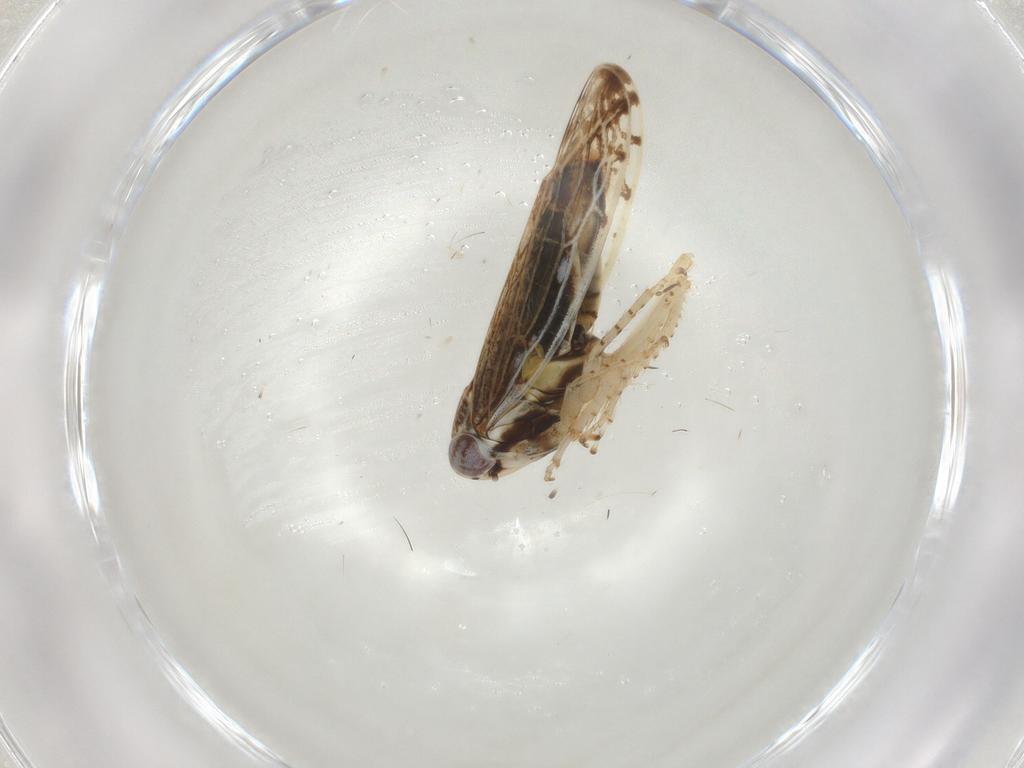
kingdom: Animalia
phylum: Arthropoda
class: Insecta
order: Hemiptera
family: Cicadellidae
